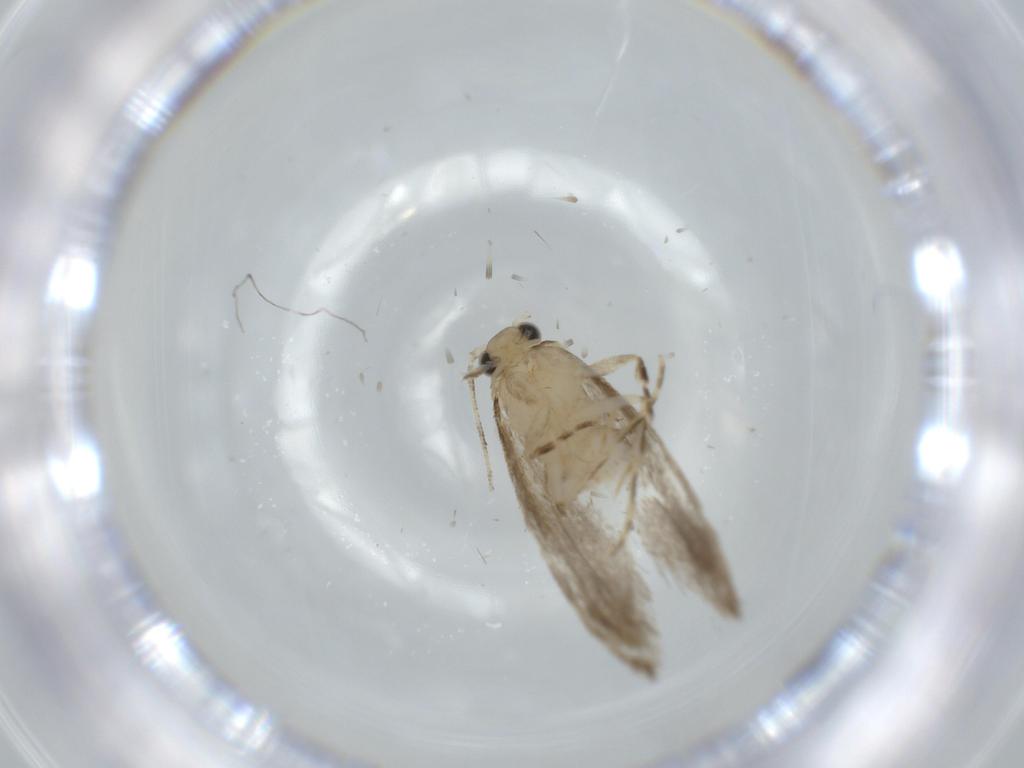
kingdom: Animalia
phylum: Arthropoda
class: Insecta
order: Lepidoptera
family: Tineidae
